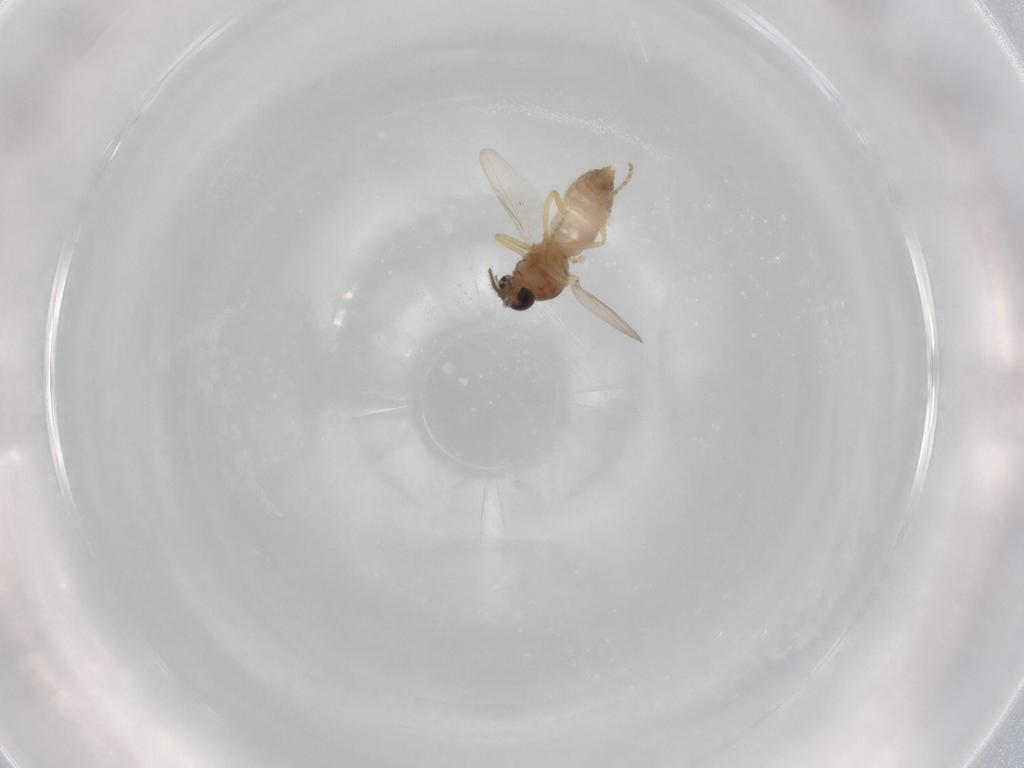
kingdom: Animalia
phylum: Arthropoda
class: Insecta
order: Diptera
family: Ceratopogonidae
